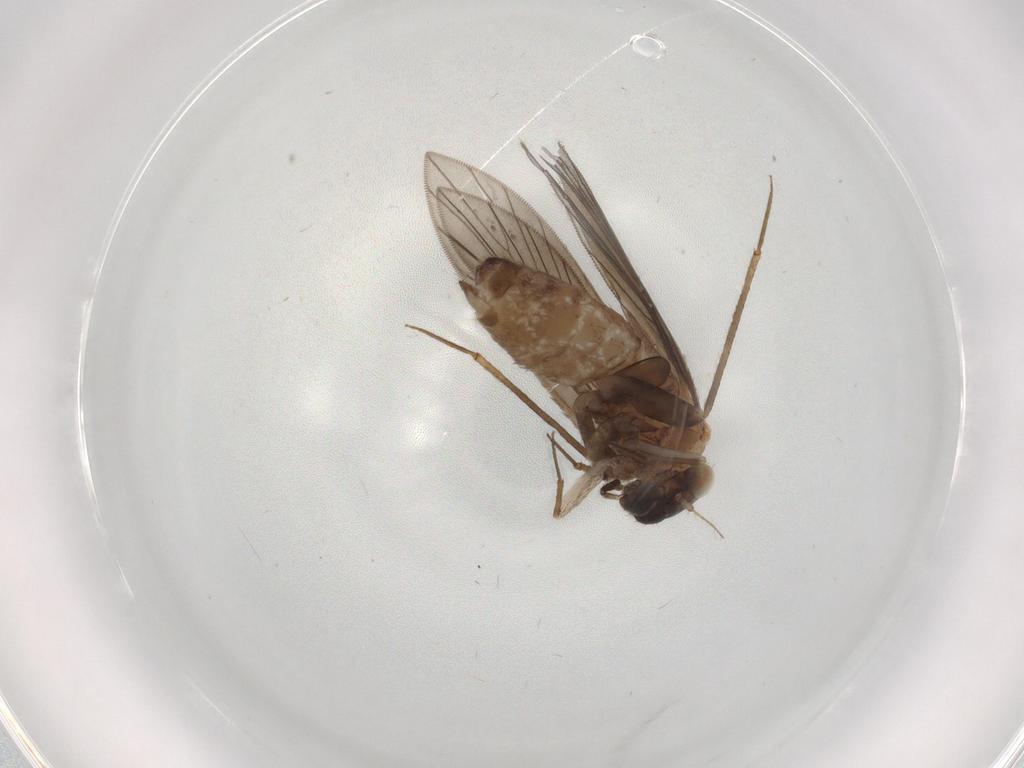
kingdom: Animalia
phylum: Arthropoda
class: Insecta
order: Psocodea
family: Lepidopsocidae
